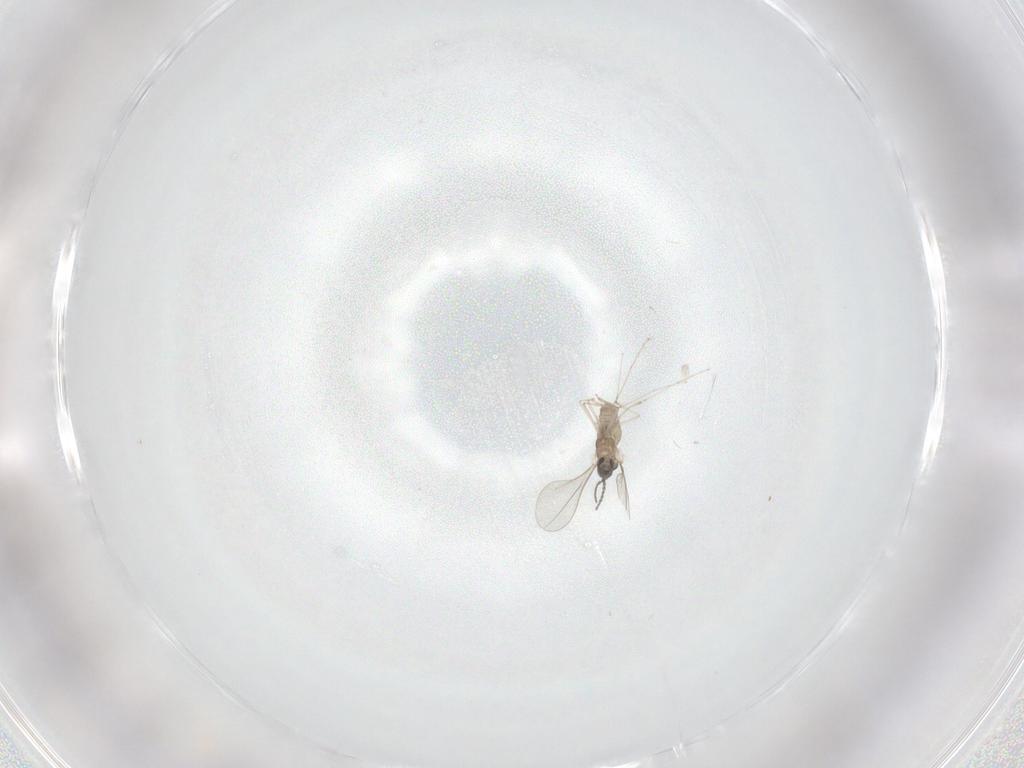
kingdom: Animalia
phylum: Arthropoda
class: Insecta
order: Diptera
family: Cecidomyiidae
